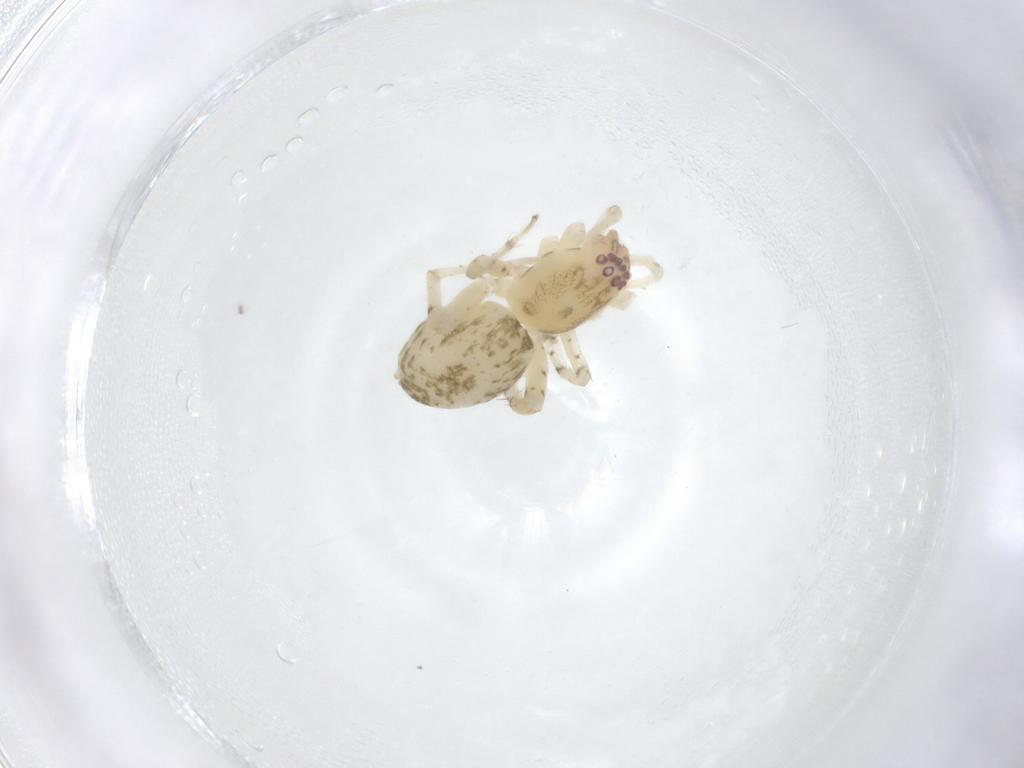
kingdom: Animalia
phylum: Arthropoda
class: Arachnida
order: Araneae
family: Anyphaenidae
